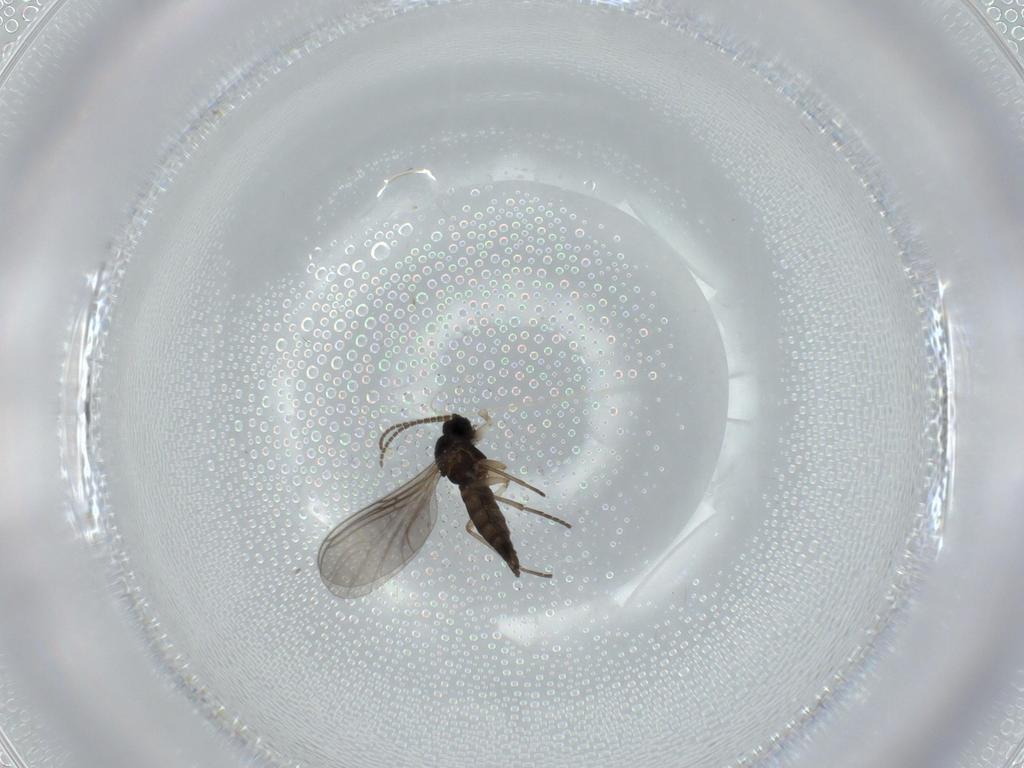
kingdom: Animalia
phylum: Arthropoda
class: Insecta
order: Diptera
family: Sciaridae
